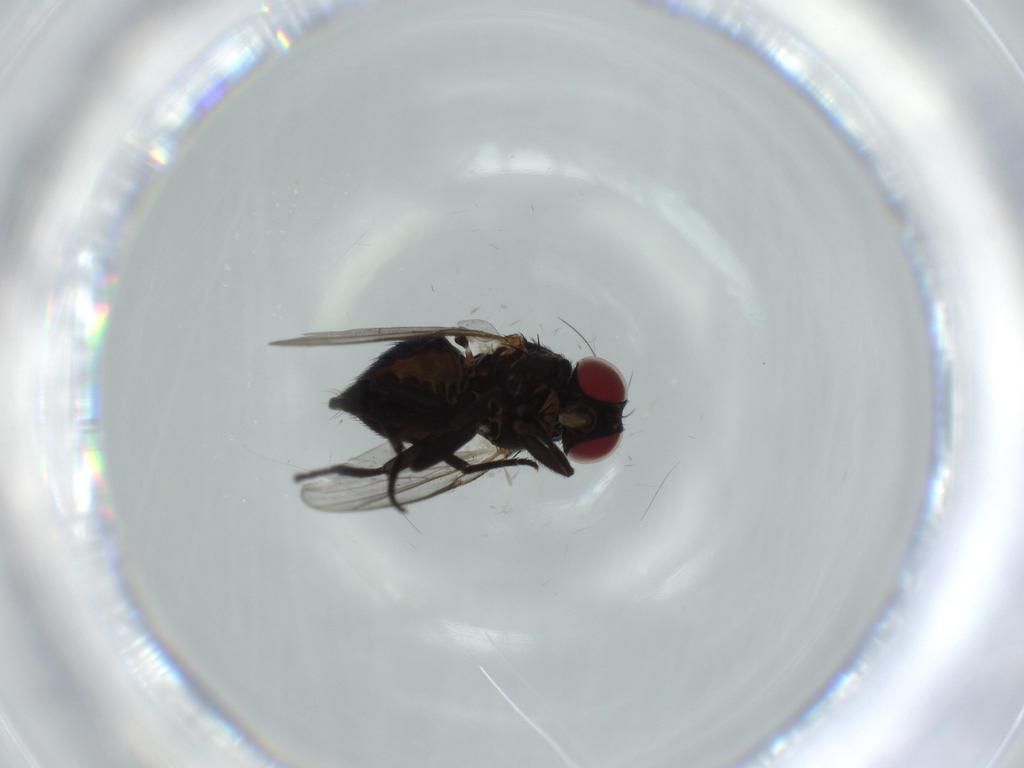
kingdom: Animalia
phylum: Arthropoda
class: Insecta
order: Diptera
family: Agromyzidae
